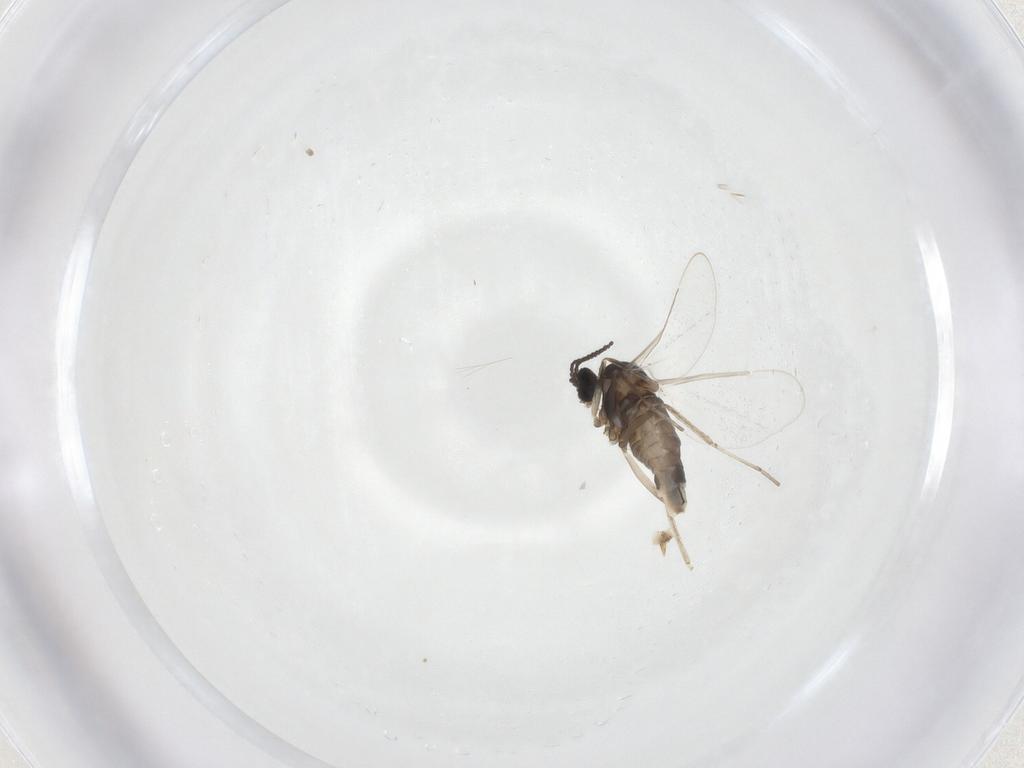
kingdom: Animalia
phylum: Arthropoda
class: Insecta
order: Diptera
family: Cecidomyiidae
